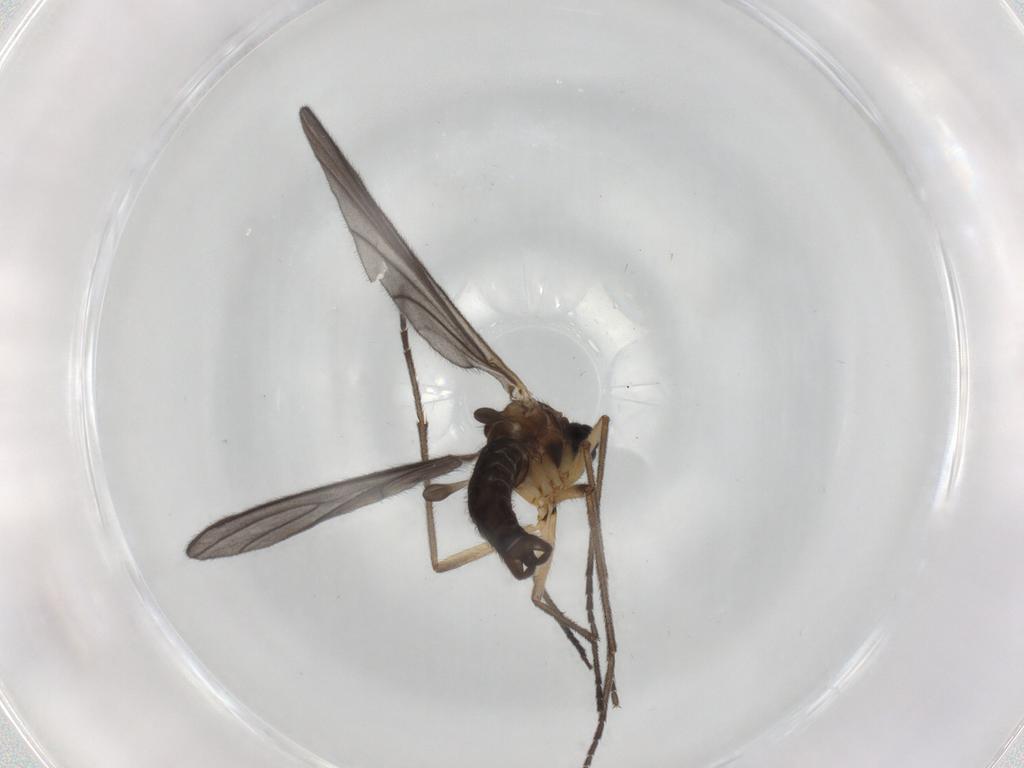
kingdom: Animalia
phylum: Arthropoda
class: Insecta
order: Diptera
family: Sciaridae
